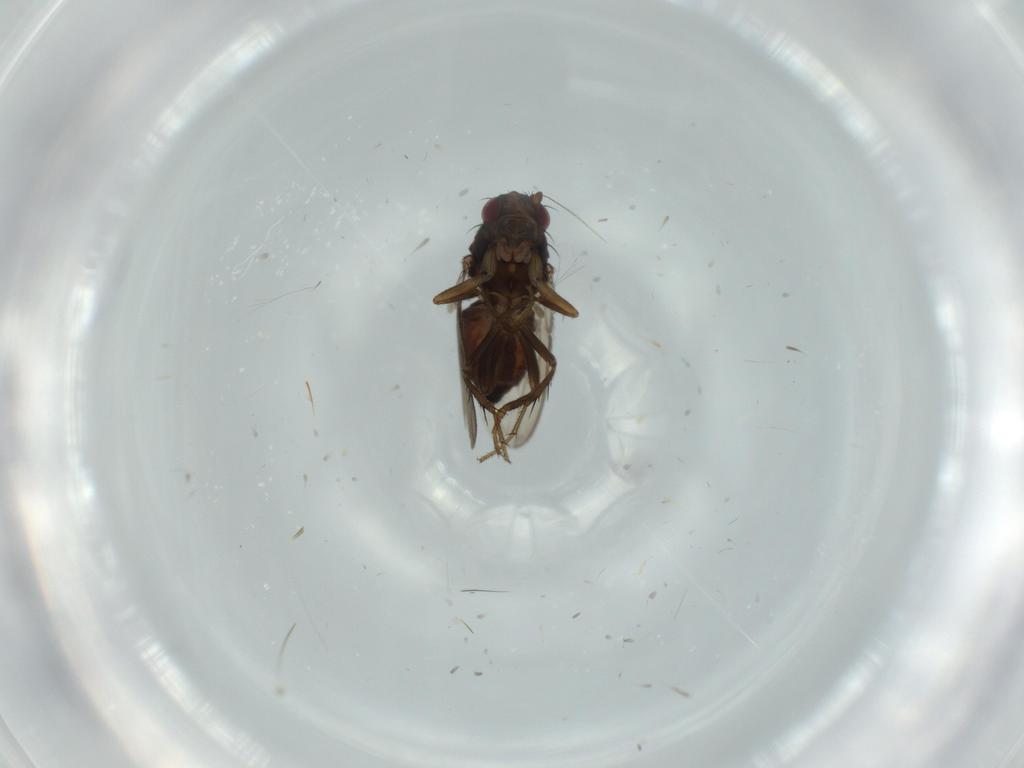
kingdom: Animalia
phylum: Arthropoda
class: Insecta
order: Diptera
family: Sphaeroceridae
